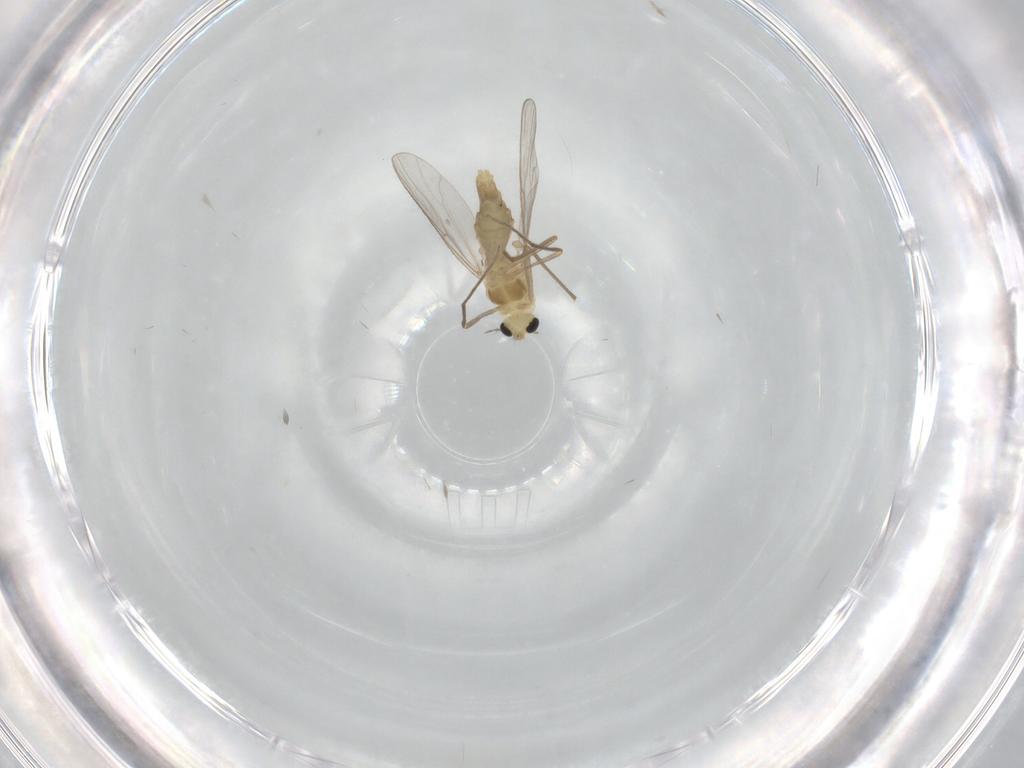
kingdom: Animalia
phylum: Arthropoda
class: Insecta
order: Diptera
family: Chironomidae
